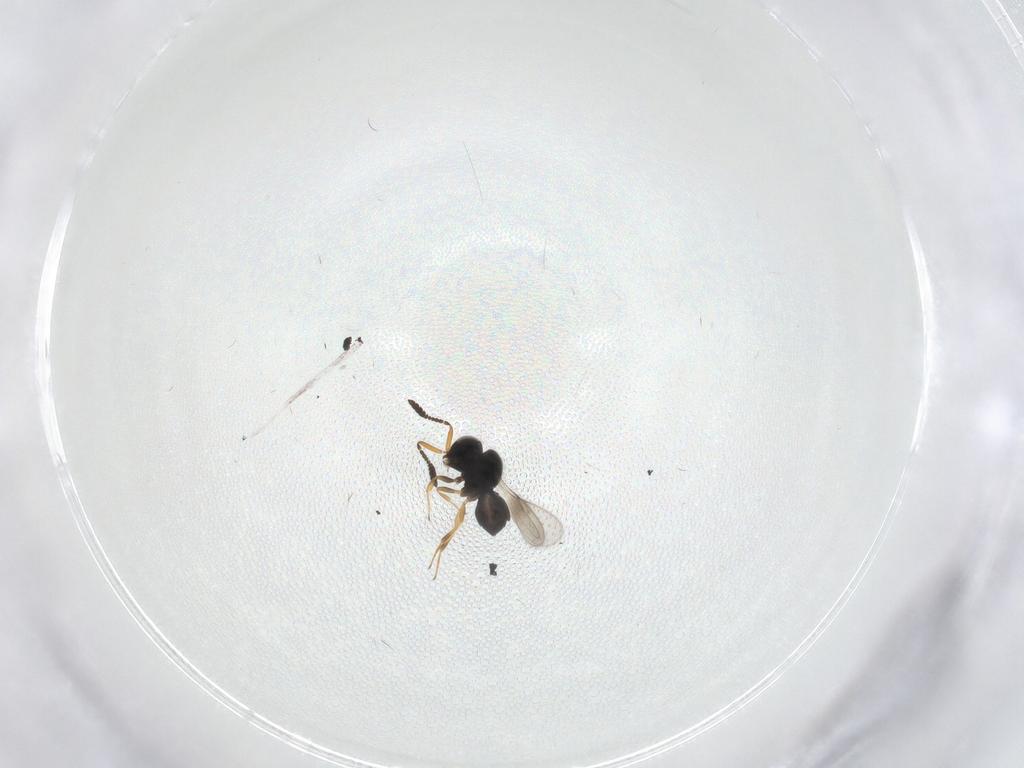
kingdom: Animalia
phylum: Arthropoda
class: Insecta
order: Hymenoptera
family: Scelionidae
